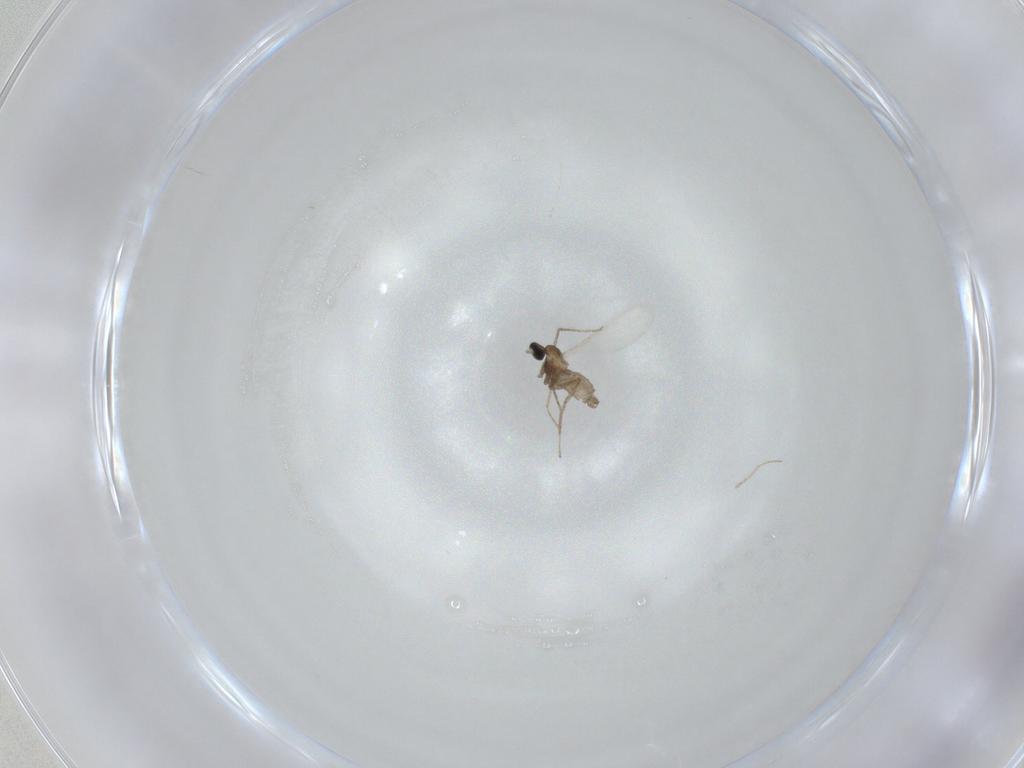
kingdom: Animalia
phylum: Arthropoda
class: Insecta
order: Diptera
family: Cecidomyiidae
